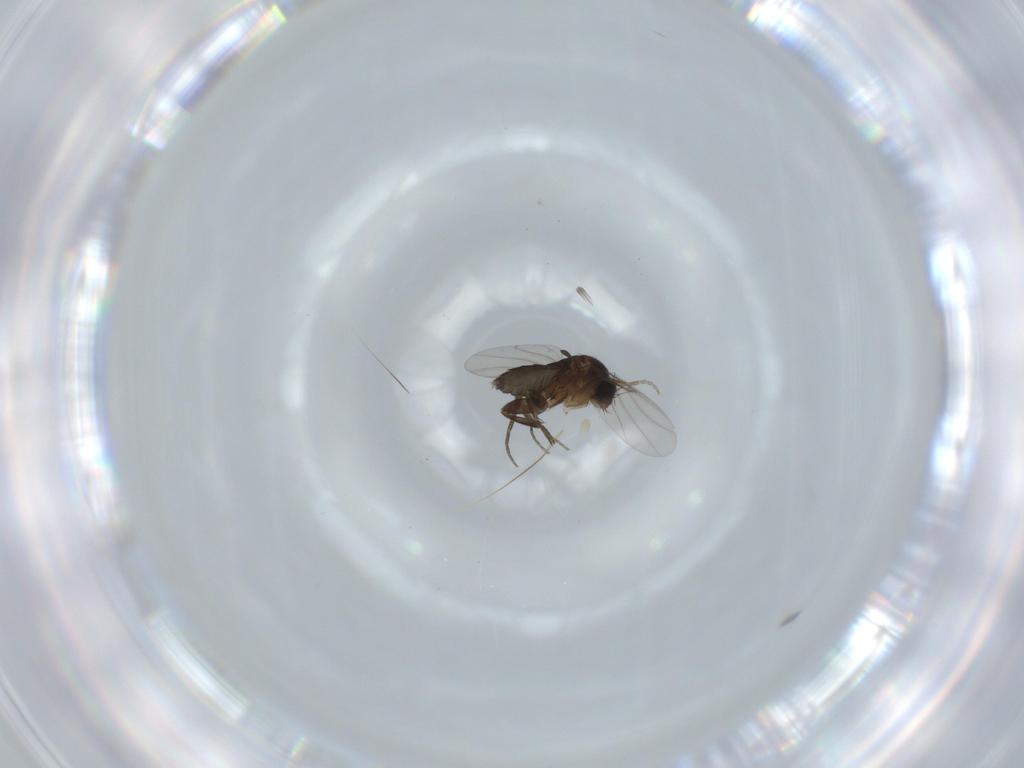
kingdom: Animalia
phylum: Arthropoda
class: Insecta
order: Diptera
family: Phoridae
